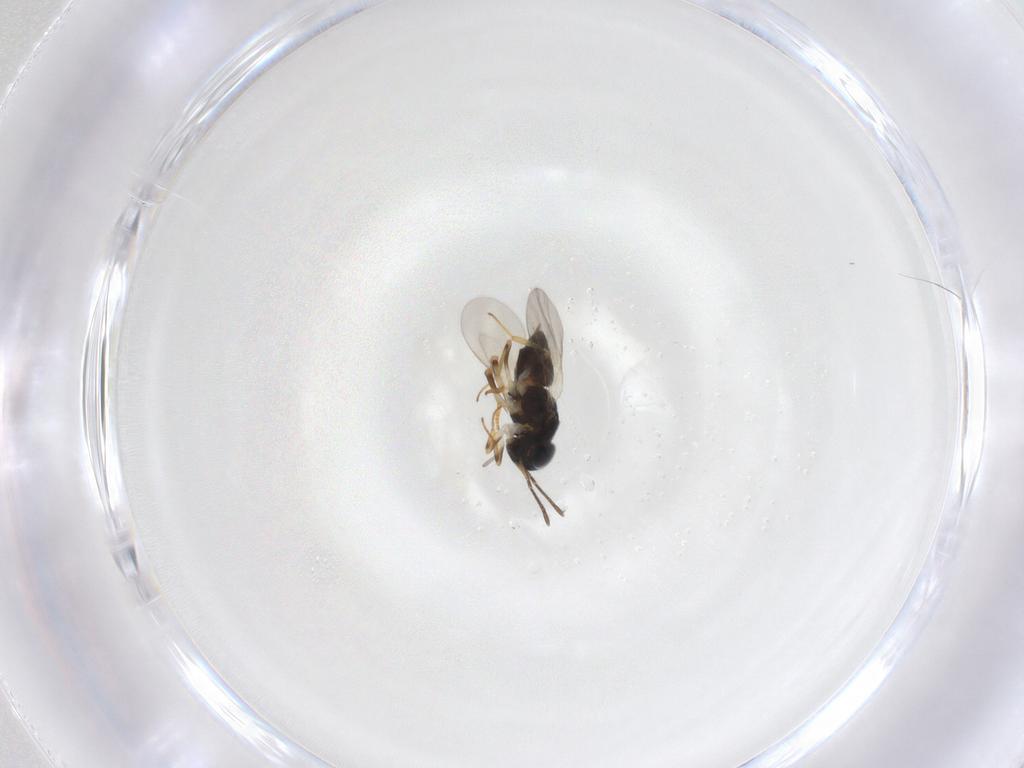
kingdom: Animalia
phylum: Arthropoda
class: Insecta
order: Hymenoptera
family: Encyrtidae
